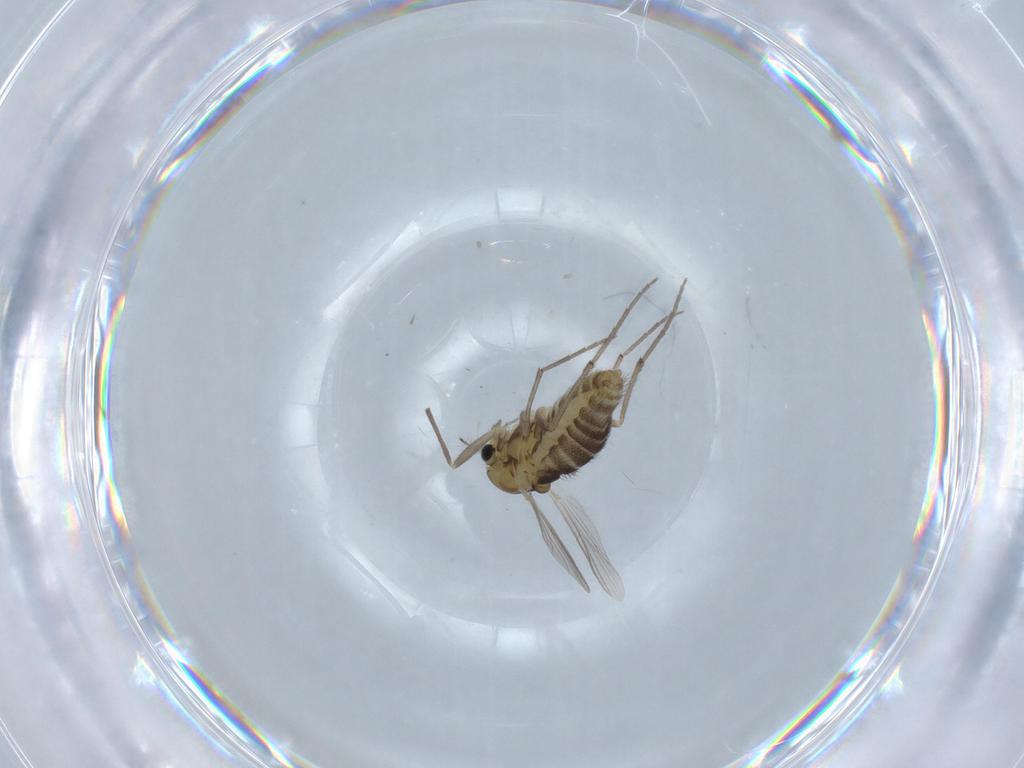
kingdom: Animalia
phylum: Arthropoda
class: Insecta
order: Diptera
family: Chironomidae
